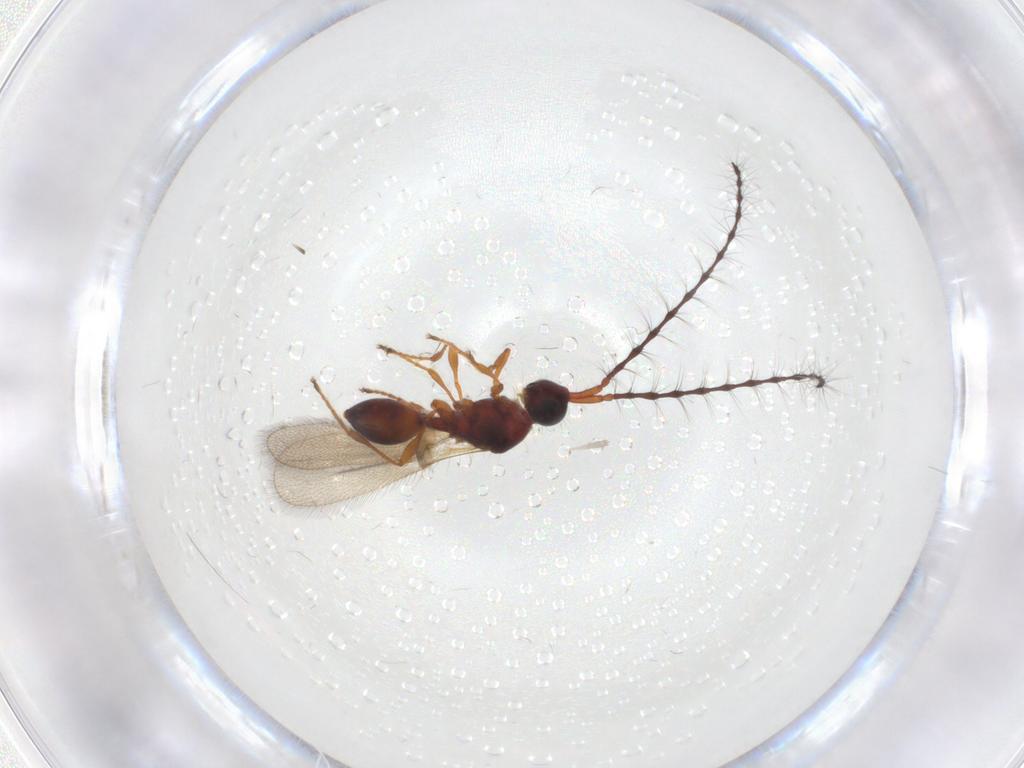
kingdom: Animalia
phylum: Arthropoda
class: Insecta
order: Hymenoptera
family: Diapriidae
